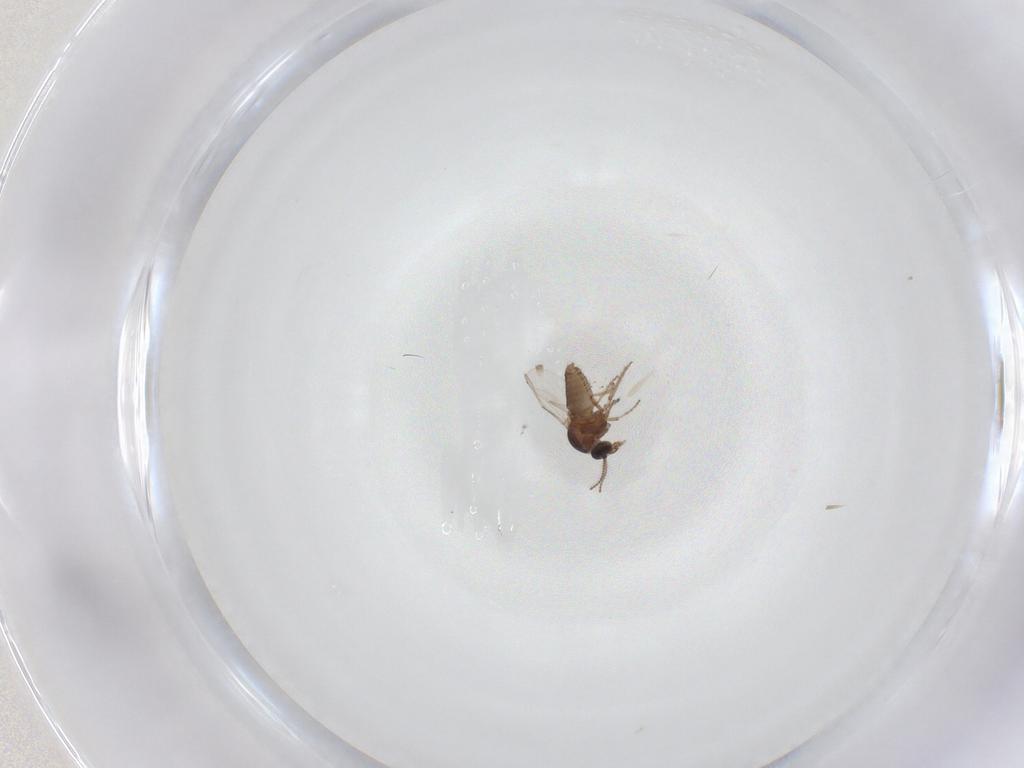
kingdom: Animalia
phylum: Arthropoda
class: Insecta
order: Diptera
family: Ceratopogonidae
